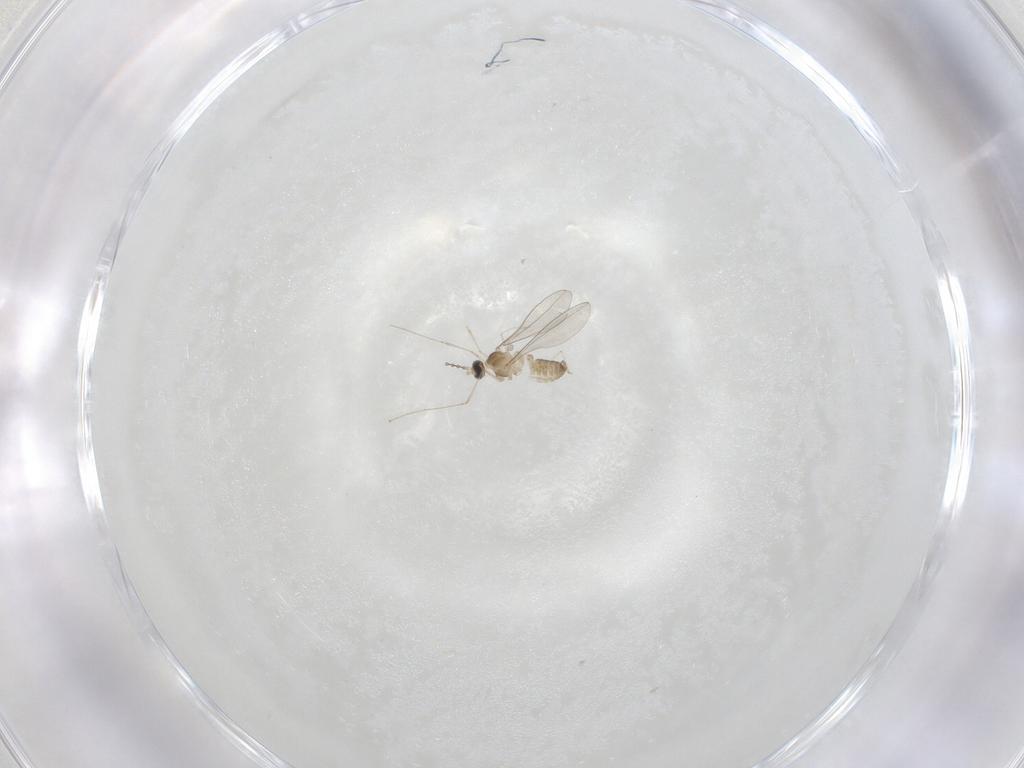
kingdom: Animalia
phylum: Arthropoda
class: Insecta
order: Diptera
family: Cecidomyiidae
